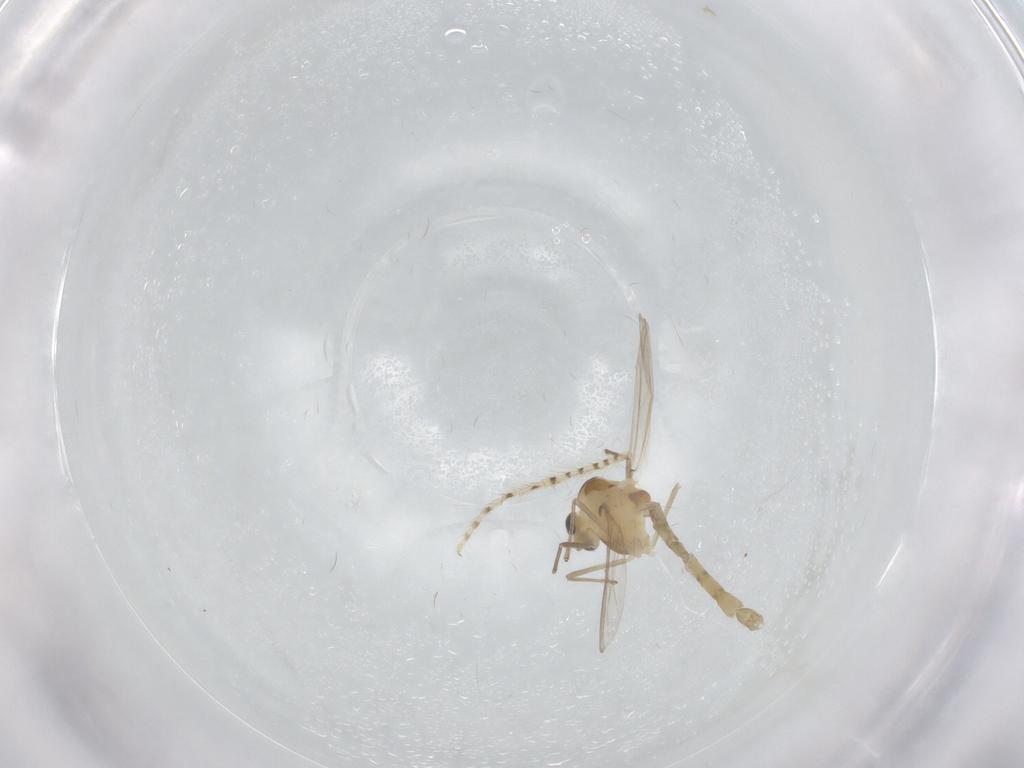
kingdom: Animalia
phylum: Arthropoda
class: Insecta
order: Diptera
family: Chironomidae
